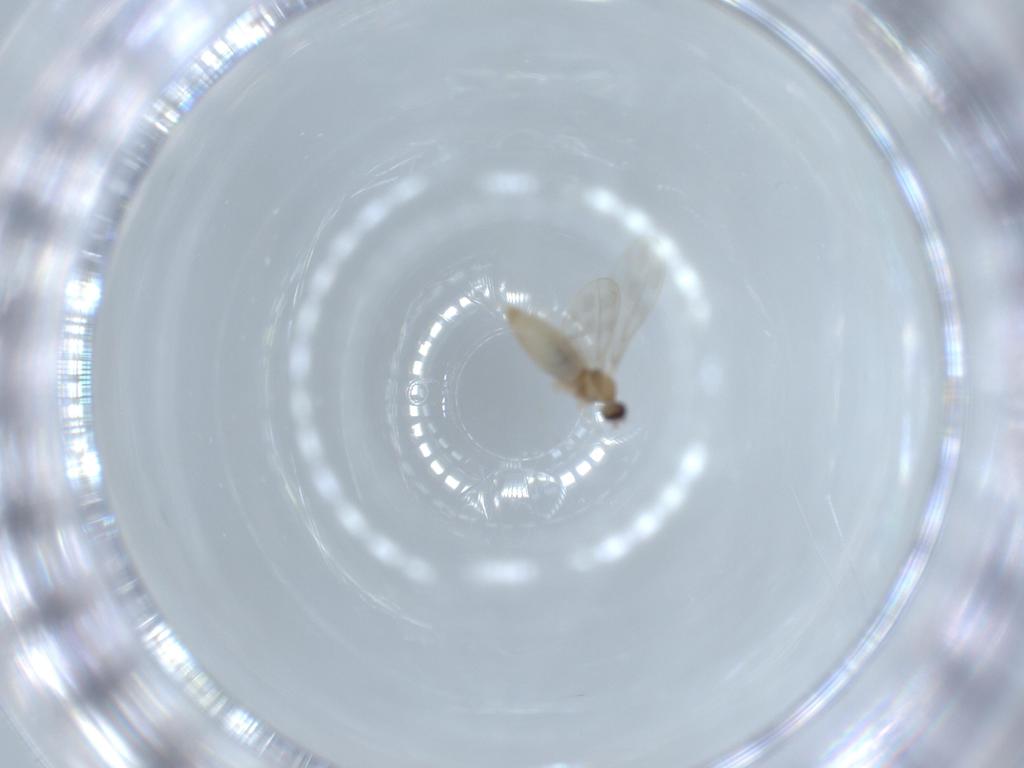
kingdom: Animalia
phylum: Arthropoda
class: Insecta
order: Diptera
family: Cecidomyiidae
